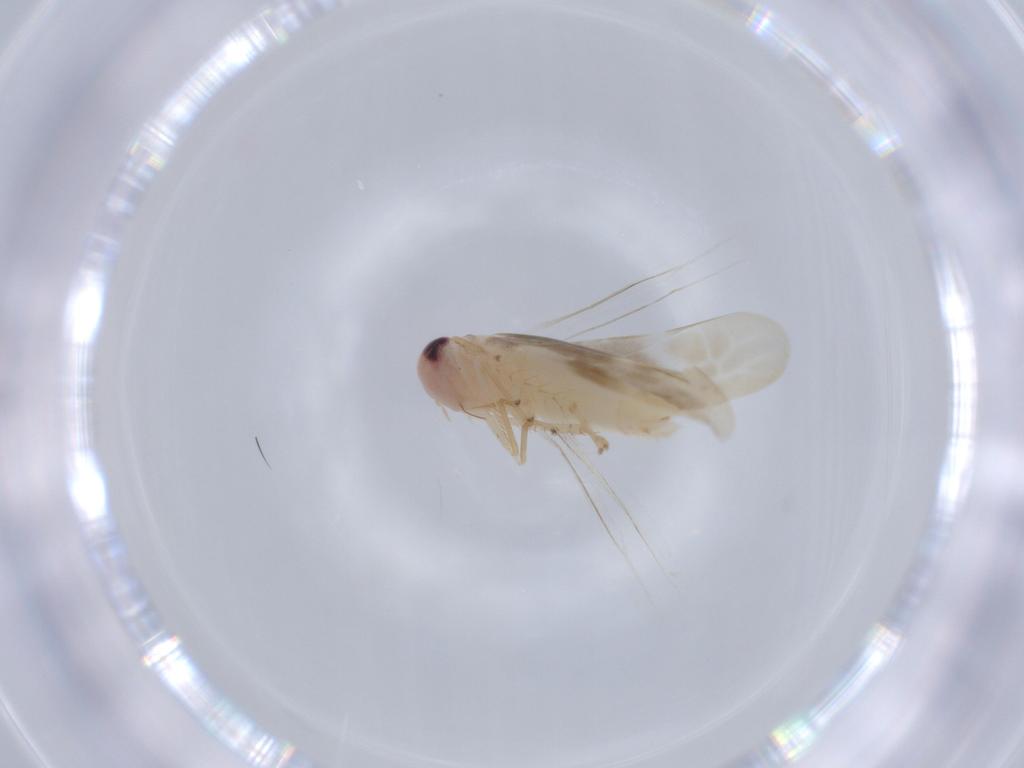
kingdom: Animalia
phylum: Arthropoda
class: Insecta
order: Hemiptera
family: Cicadellidae
